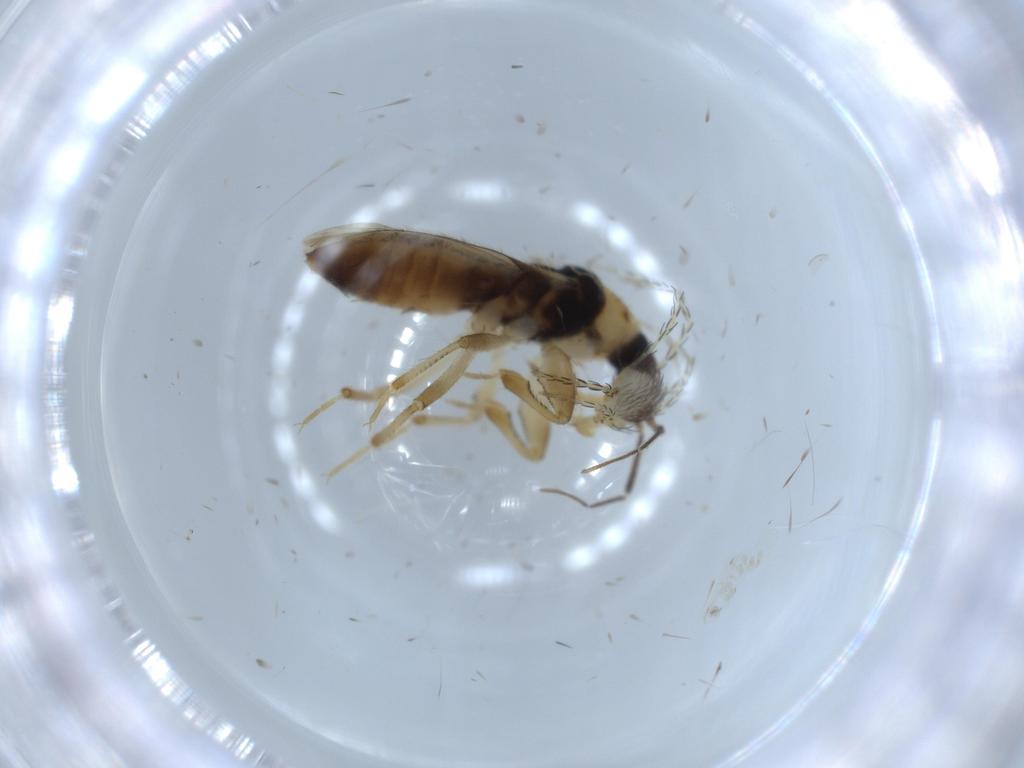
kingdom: Animalia
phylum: Arthropoda
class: Insecta
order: Hemiptera
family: Nabidae
